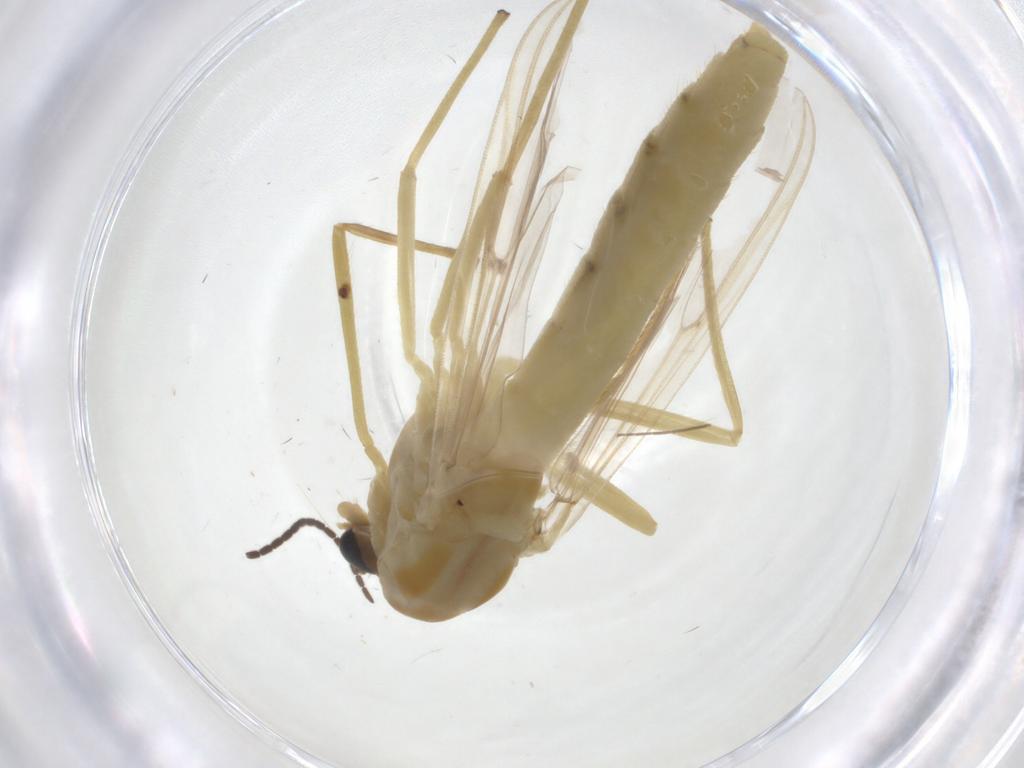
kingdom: Animalia
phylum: Arthropoda
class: Insecta
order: Diptera
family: Chironomidae
